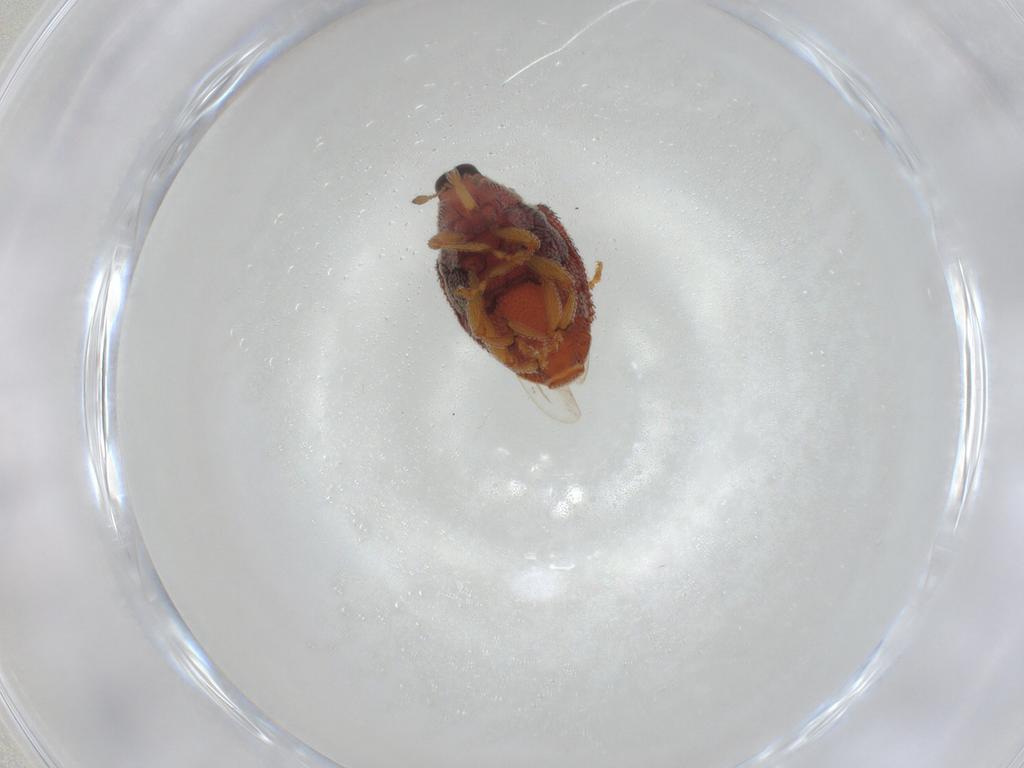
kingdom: Animalia
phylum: Arthropoda
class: Insecta
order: Coleoptera
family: Curculionidae
